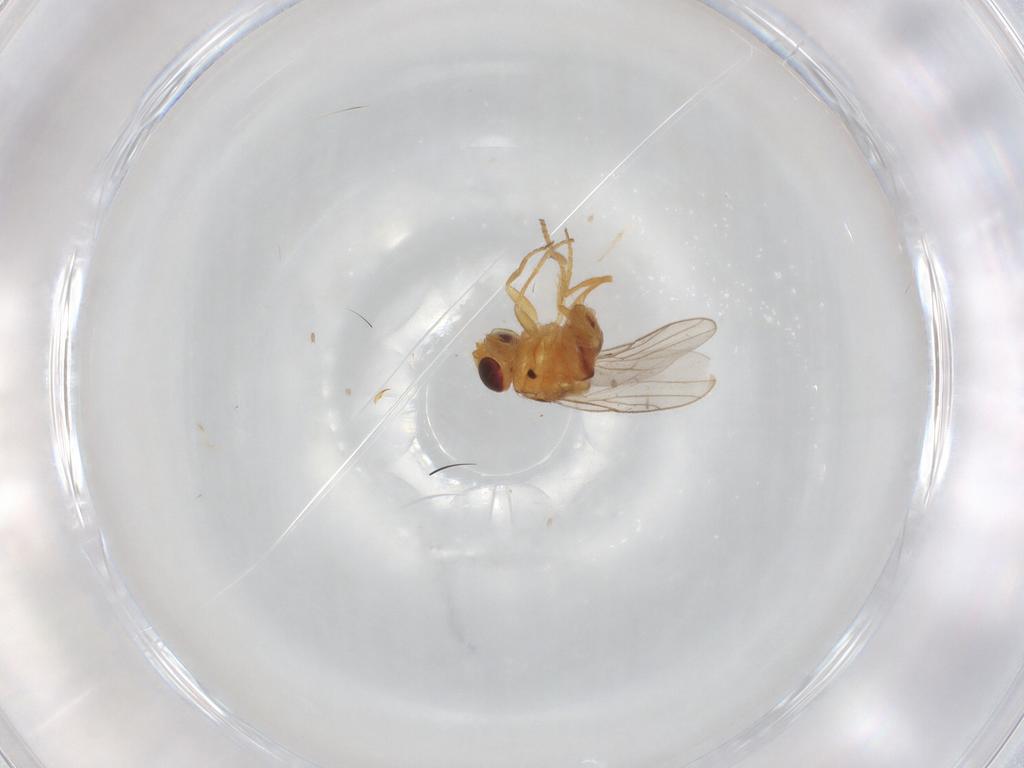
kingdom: Animalia
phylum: Arthropoda
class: Insecta
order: Diptera
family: Chloropidae
